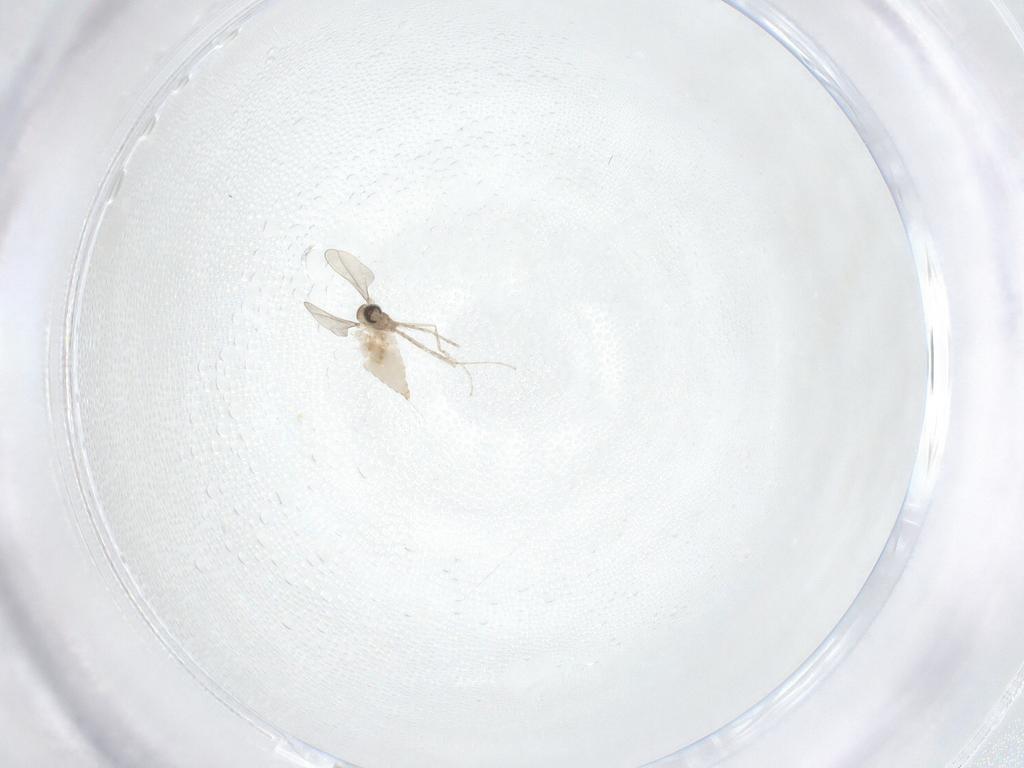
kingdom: Animalia
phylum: Arthropoda
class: Insecta
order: Diptera
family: Cecidomyiidae
